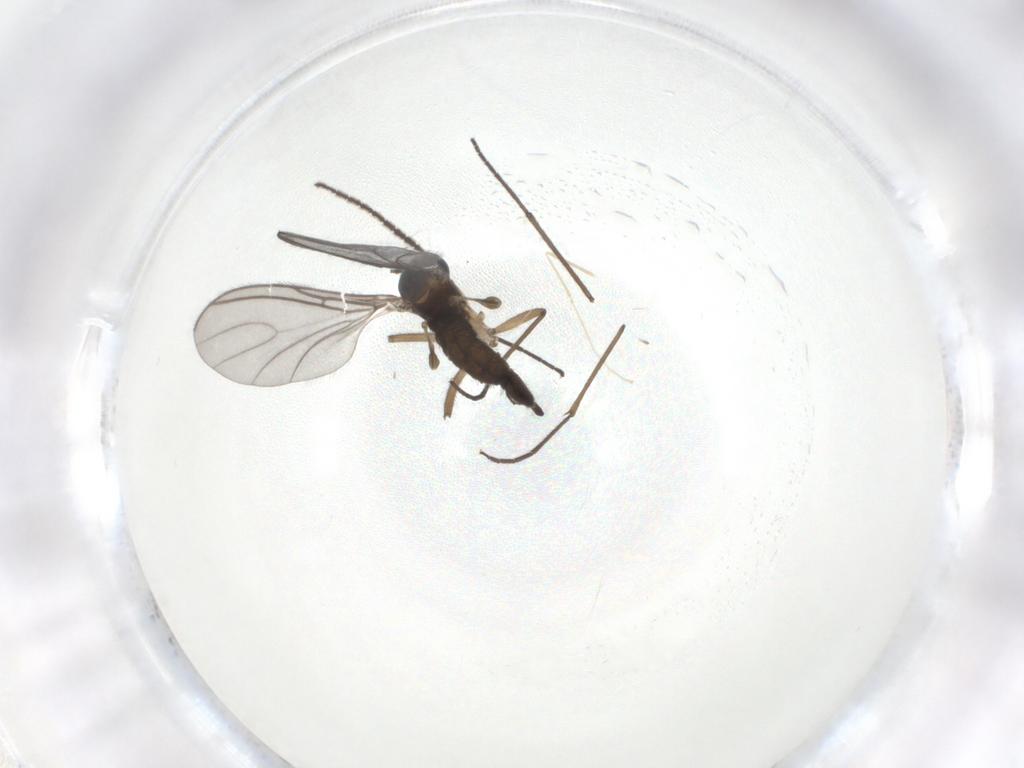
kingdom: Animalia
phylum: Arthropoda
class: Insecta
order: Diptera
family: Sciaridae
